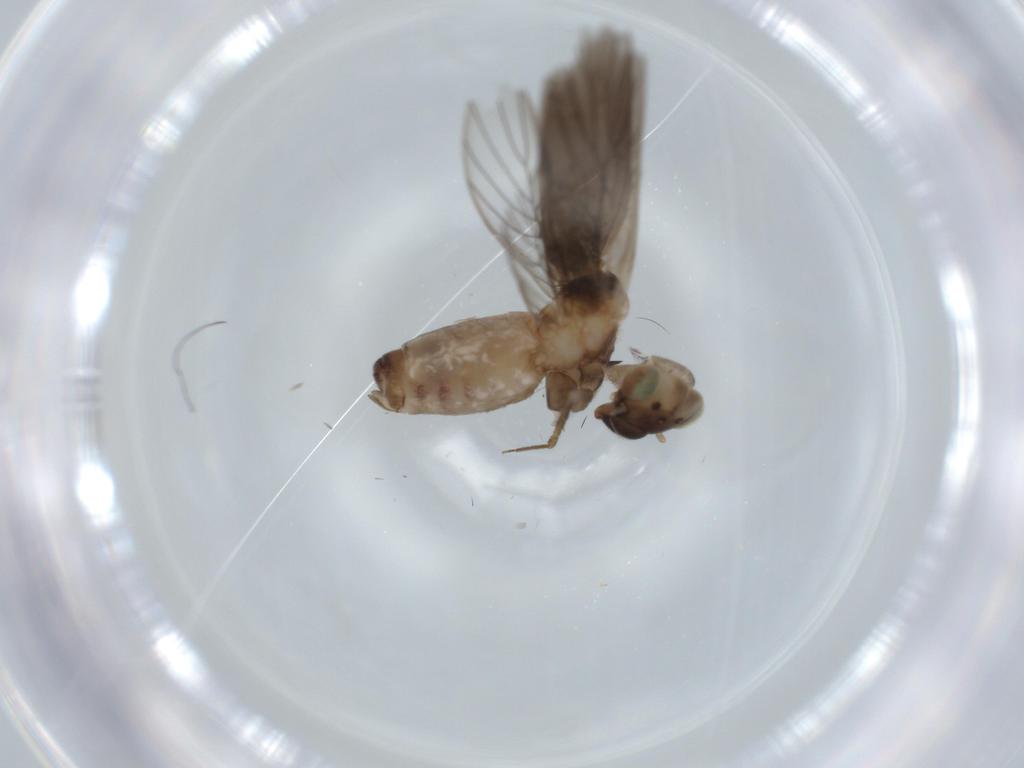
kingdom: Animalia
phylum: Arthropoda
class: Insecta
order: Psocodea
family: Lepidopsocidae
